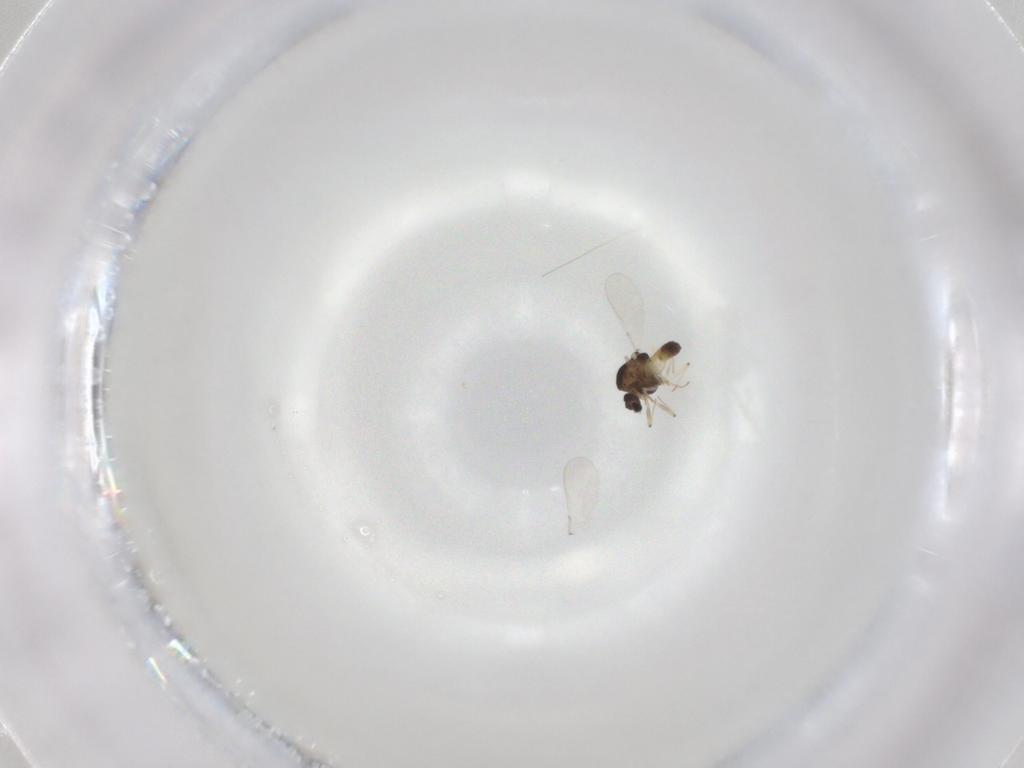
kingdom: Animalia
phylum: Arthropoda
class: Insecta
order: Diptera
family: Chironomidae
